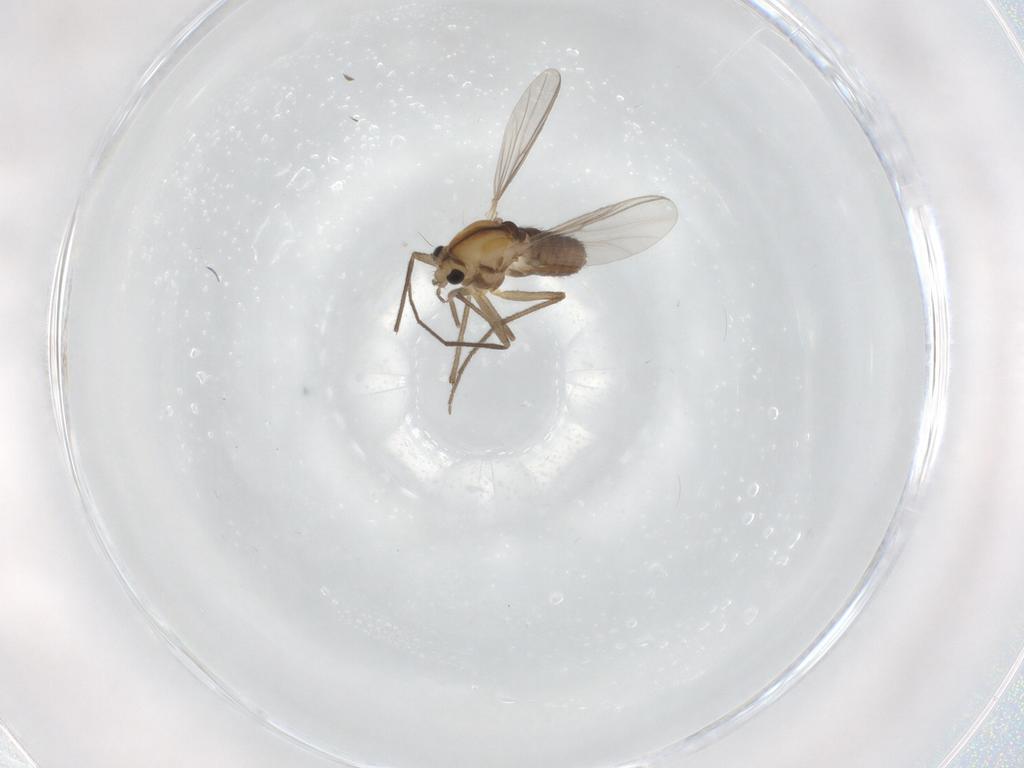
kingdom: Animalia
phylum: Arthropoda
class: Insecta
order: Diptera
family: Chironomidae
